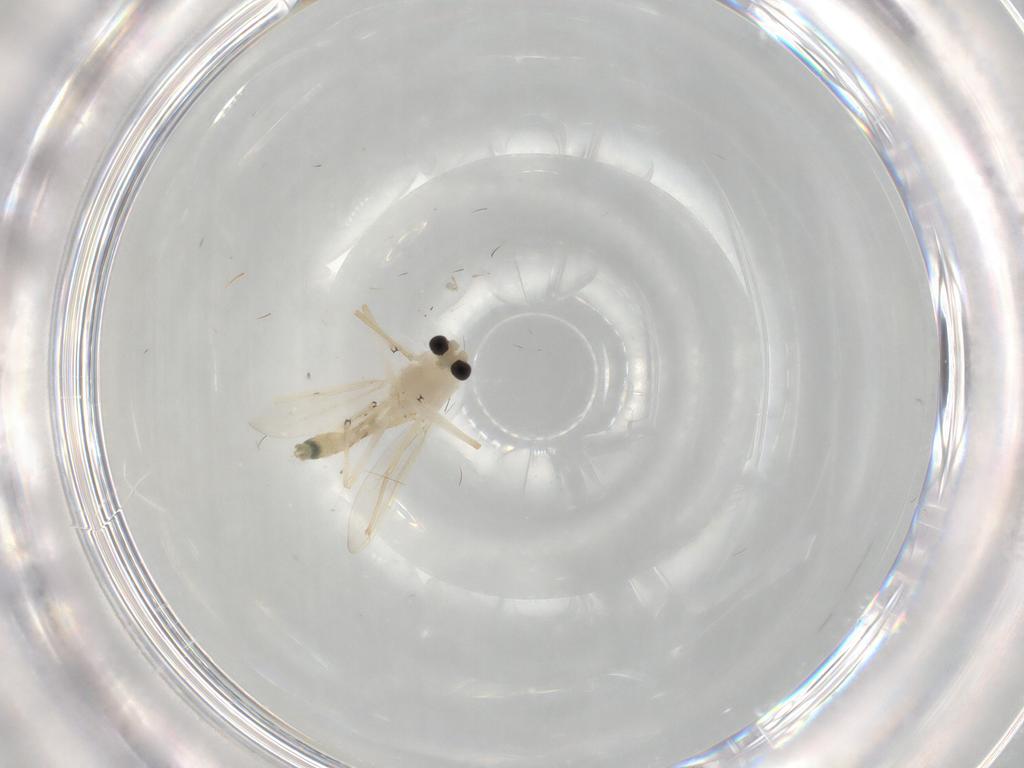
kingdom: Animalia
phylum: Arthropoda
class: Insecta
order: Diptera
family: Chironomidae
